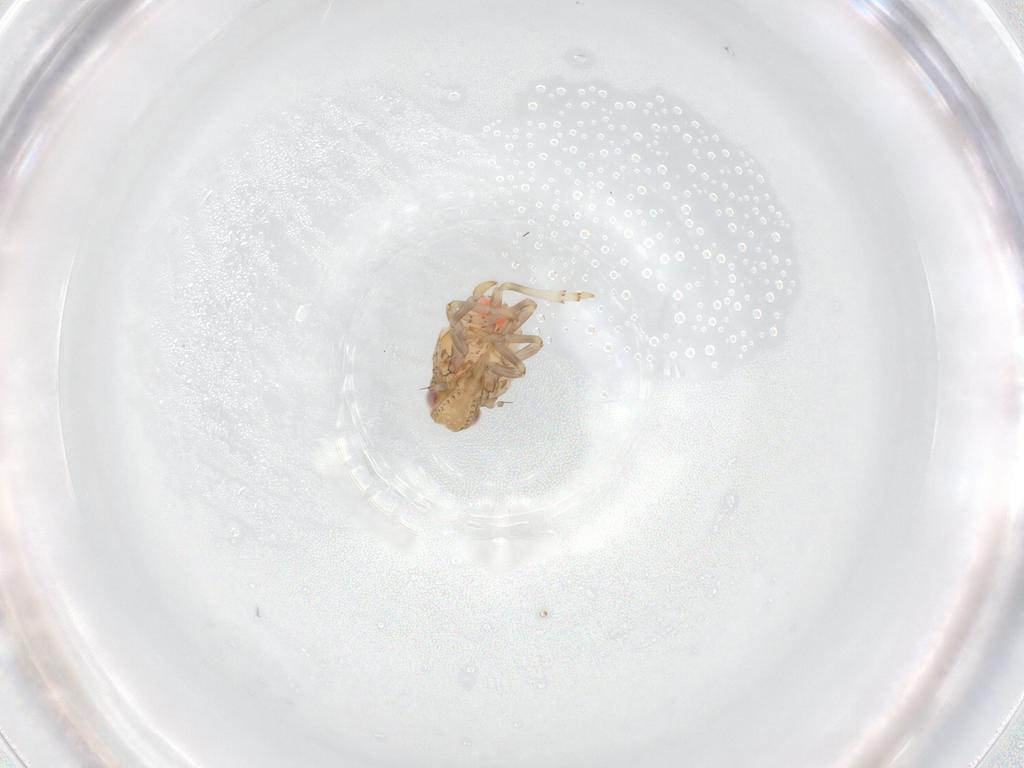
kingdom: Animalia
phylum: Arthropoda
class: Insecta
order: Hemiptera
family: Nogodinidae
